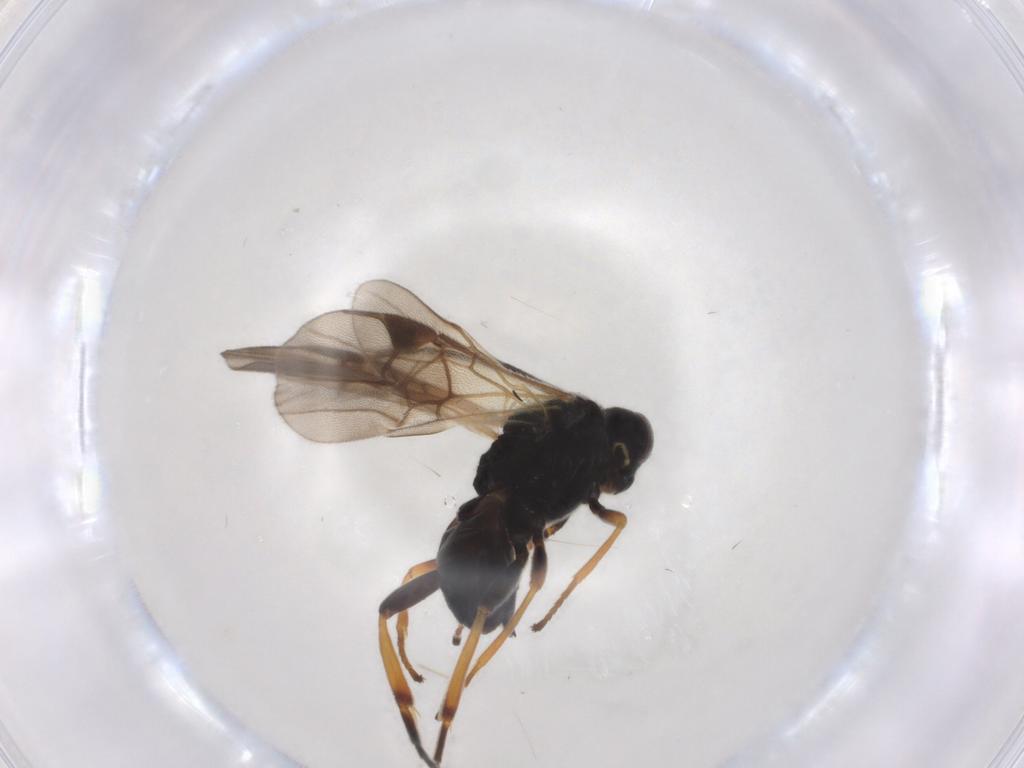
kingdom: Animalia
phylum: Arthropoda
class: Insecta
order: Hymenoptera
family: Braconidae
